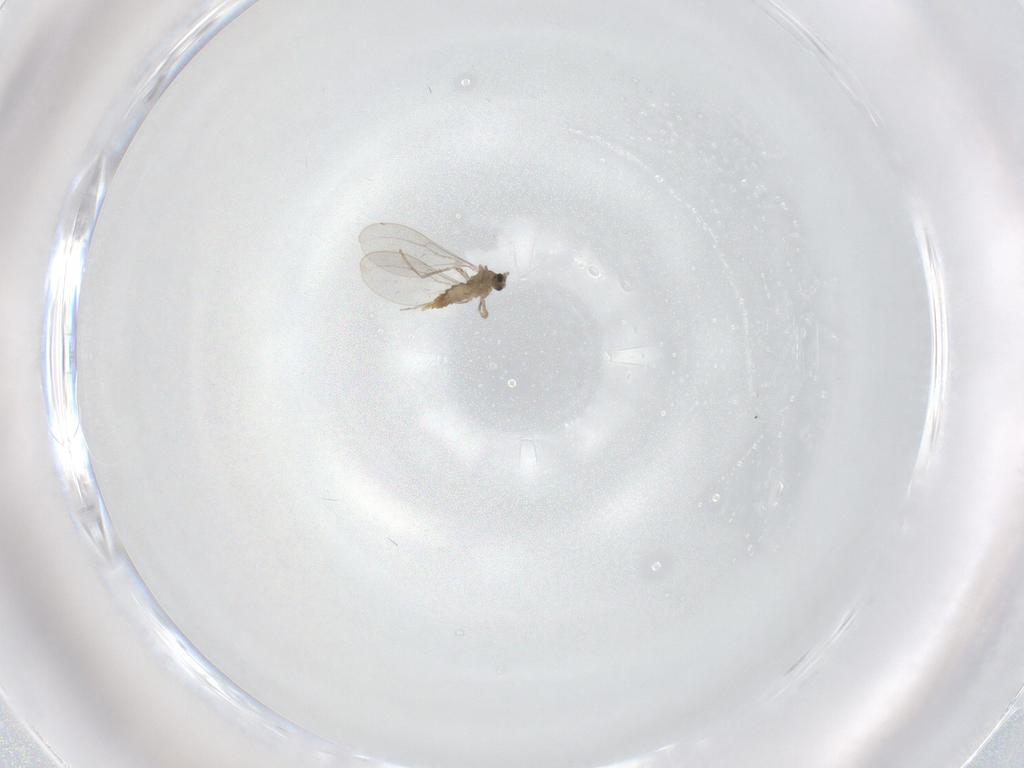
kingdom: Animalia
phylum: Arthropoda
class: Insecta
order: Diptera
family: Cecidomyiidae
